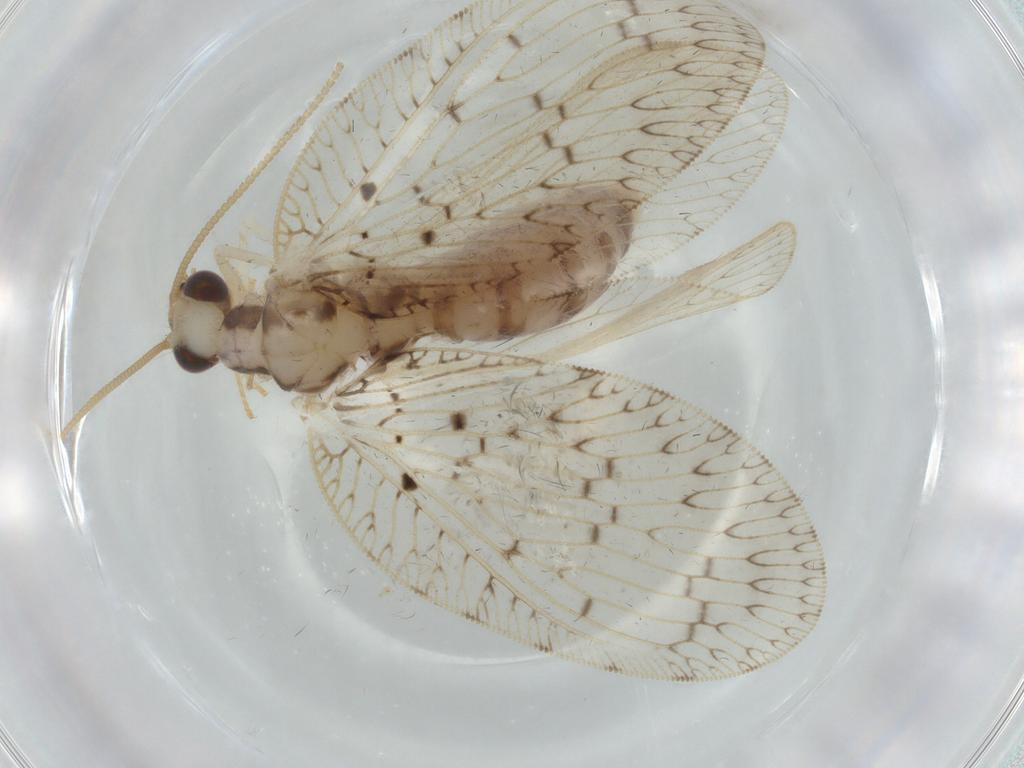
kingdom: Animalia
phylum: Arthropoda
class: Insecta
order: Neuroptera
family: Hemerobiidae
